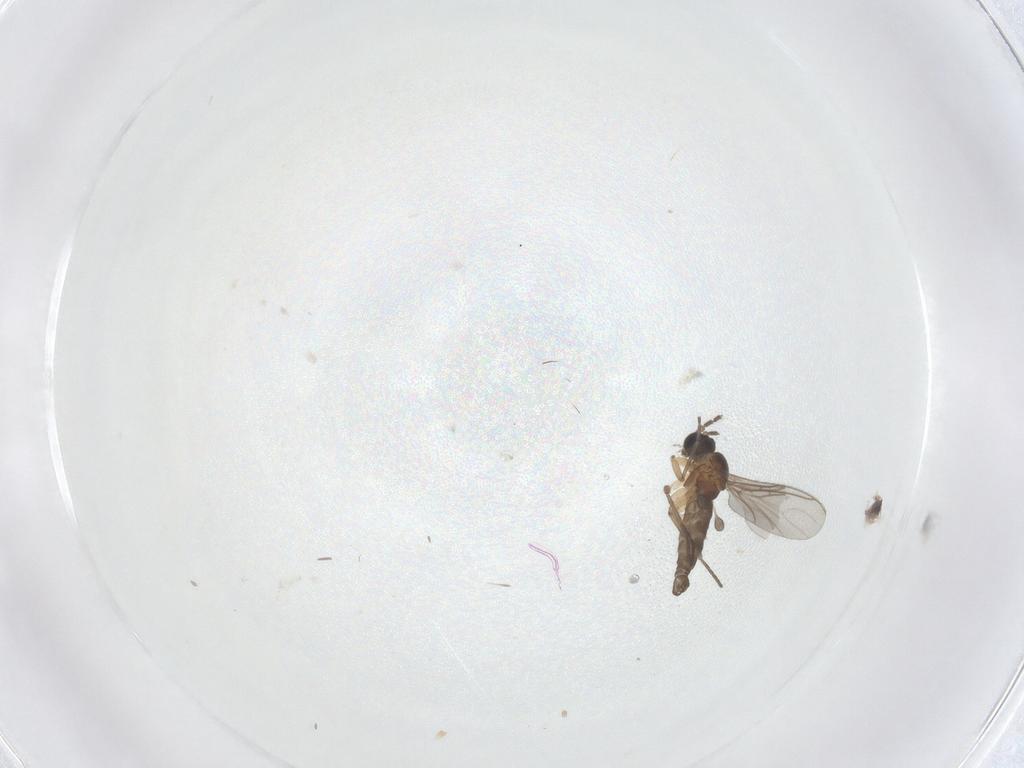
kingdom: Animalia
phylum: Arthropoda
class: Insecta
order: Diptera
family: Sciaridae
